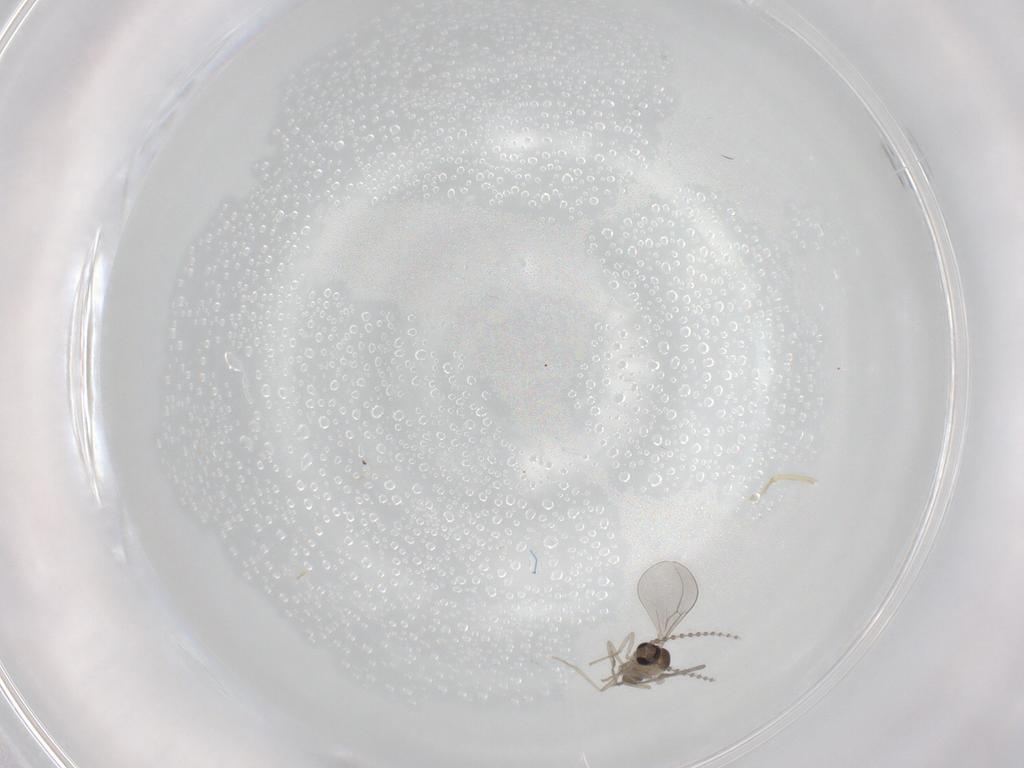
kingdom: Animalia
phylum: Arthropoda
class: Insecta
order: Diptera
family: Cecidomyiidae
